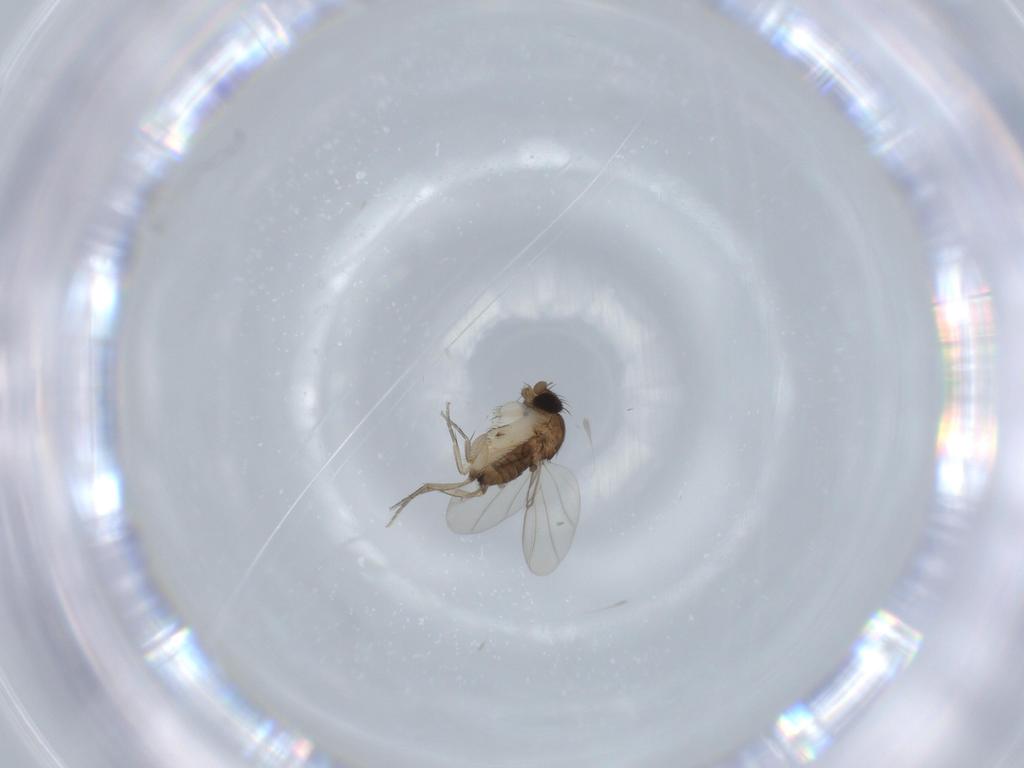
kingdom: Animalia
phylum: Arthropoda
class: Insecta
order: Diptera
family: Phoridae
